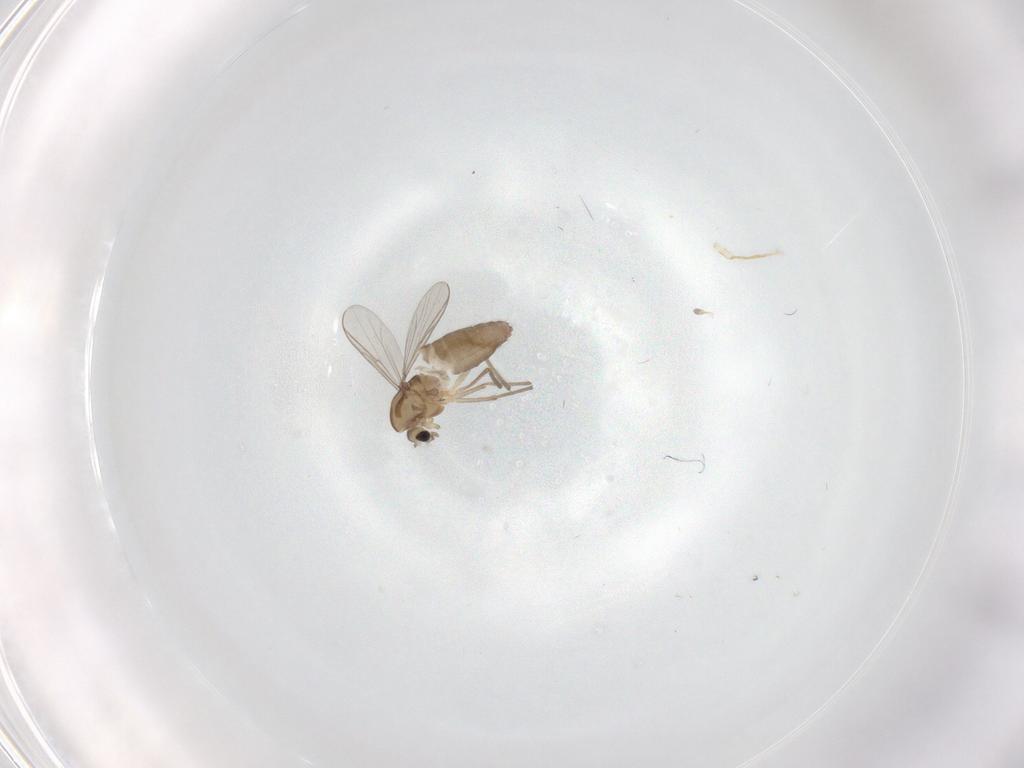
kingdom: Animalia
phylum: Arthropoda
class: Insecta
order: Diptera
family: Chironomidae
